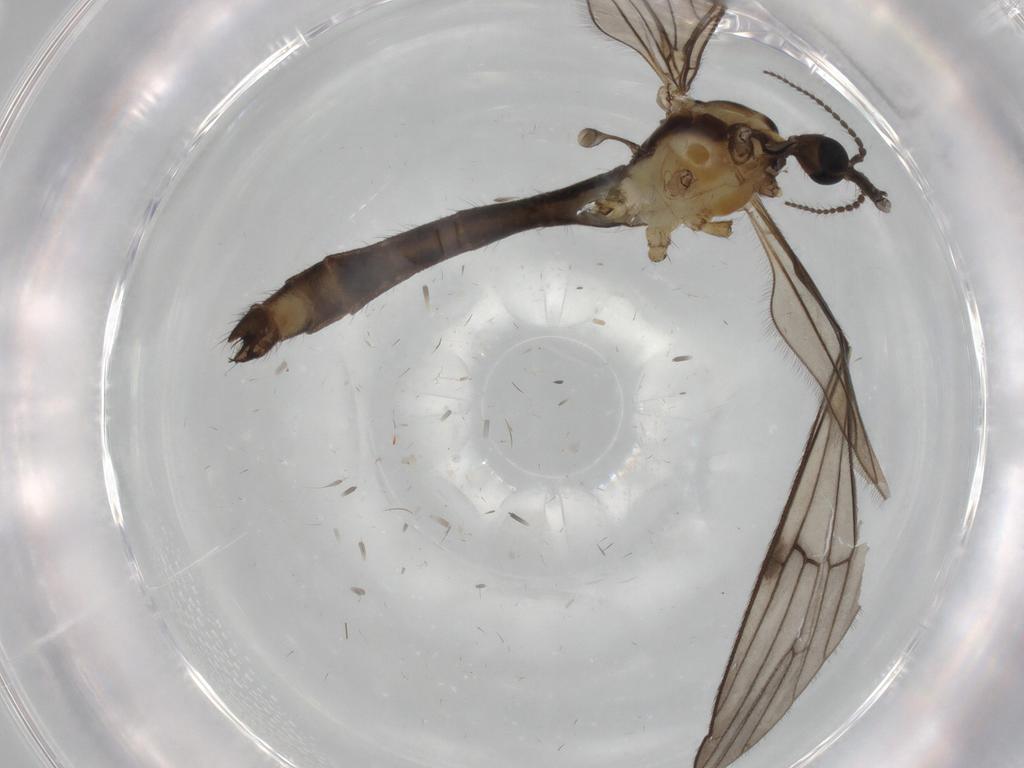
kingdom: Animalia
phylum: Arthropoda
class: Insecta
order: Diptera
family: Limoniidae
